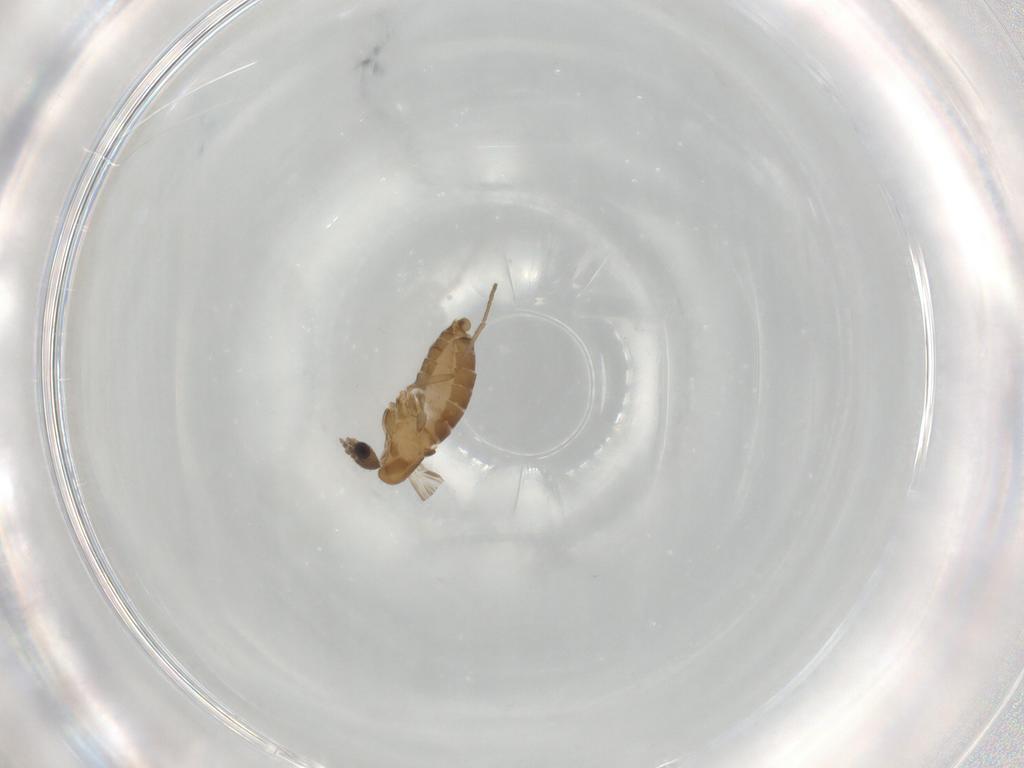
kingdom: Animalia
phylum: Arthropoda
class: Insecta
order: Diptera
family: Psychodidae
